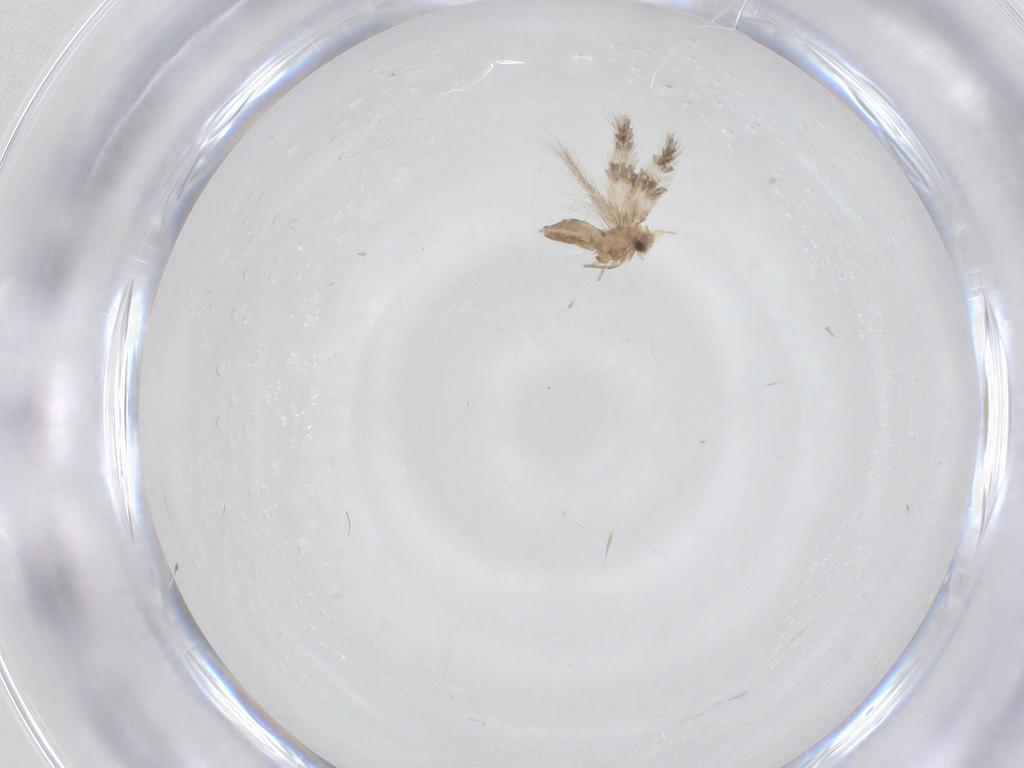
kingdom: Animalia
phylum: Arthropoda
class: Insecta
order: Lepidoptera
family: Nepticulidae
